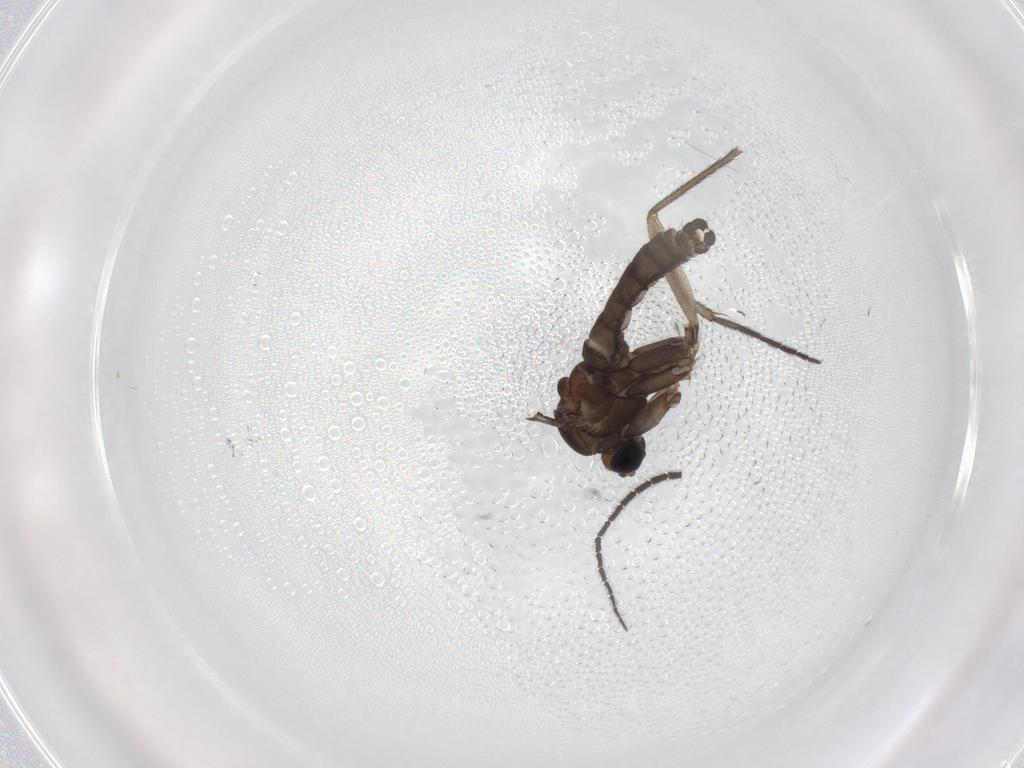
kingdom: Animalia
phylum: Arthropoda
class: Insecta
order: Diptera
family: Sciaridae
